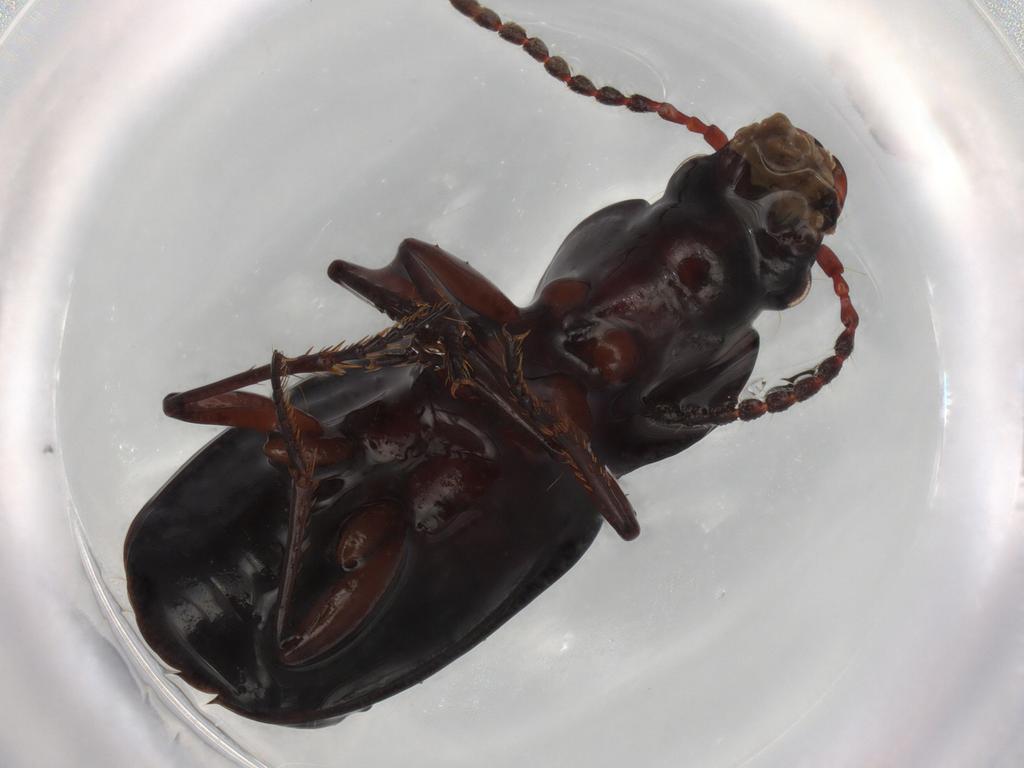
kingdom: Animalia
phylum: Arthropoda
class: Insecta
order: Coleoptera
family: Carabidae
